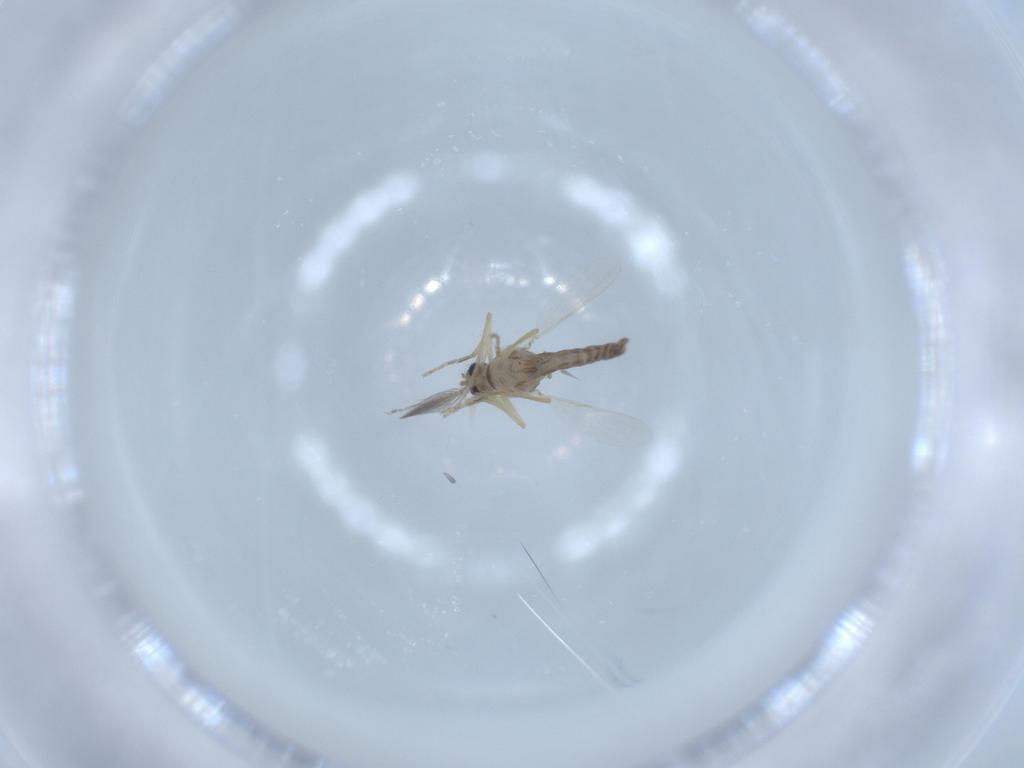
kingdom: Animalia
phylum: Arthropoda
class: Insecta
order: Diptera
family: Ceratopogonidae
